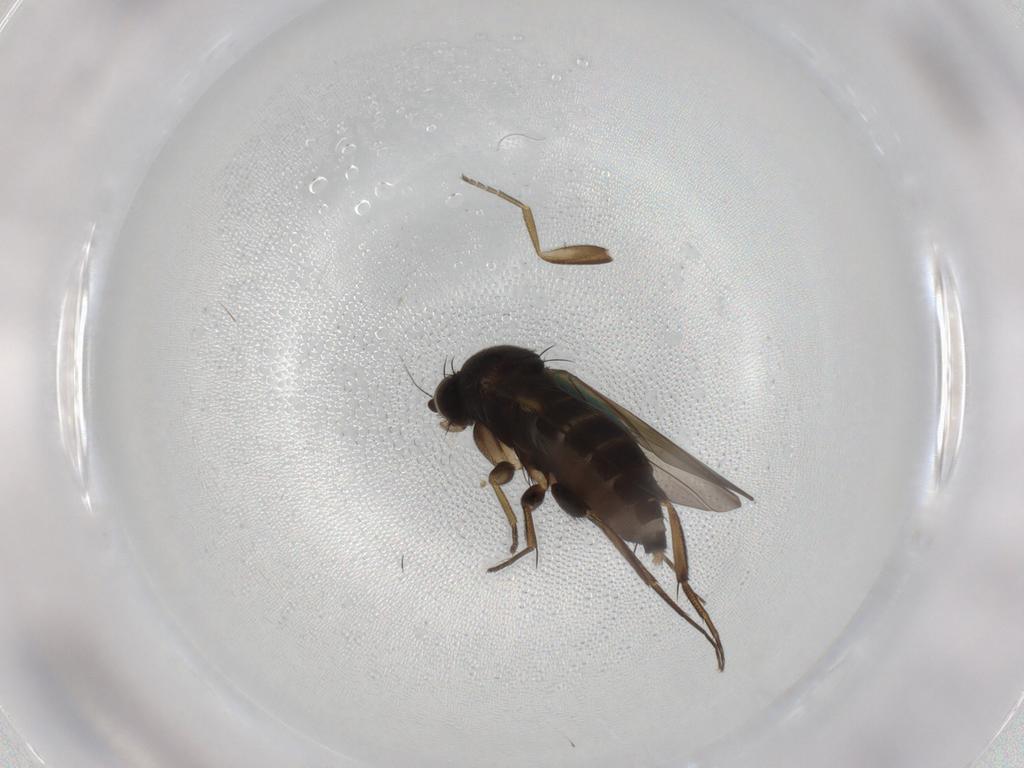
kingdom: Animalia
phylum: Arthropoda
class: Insecta
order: Diptera
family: Phoridae
